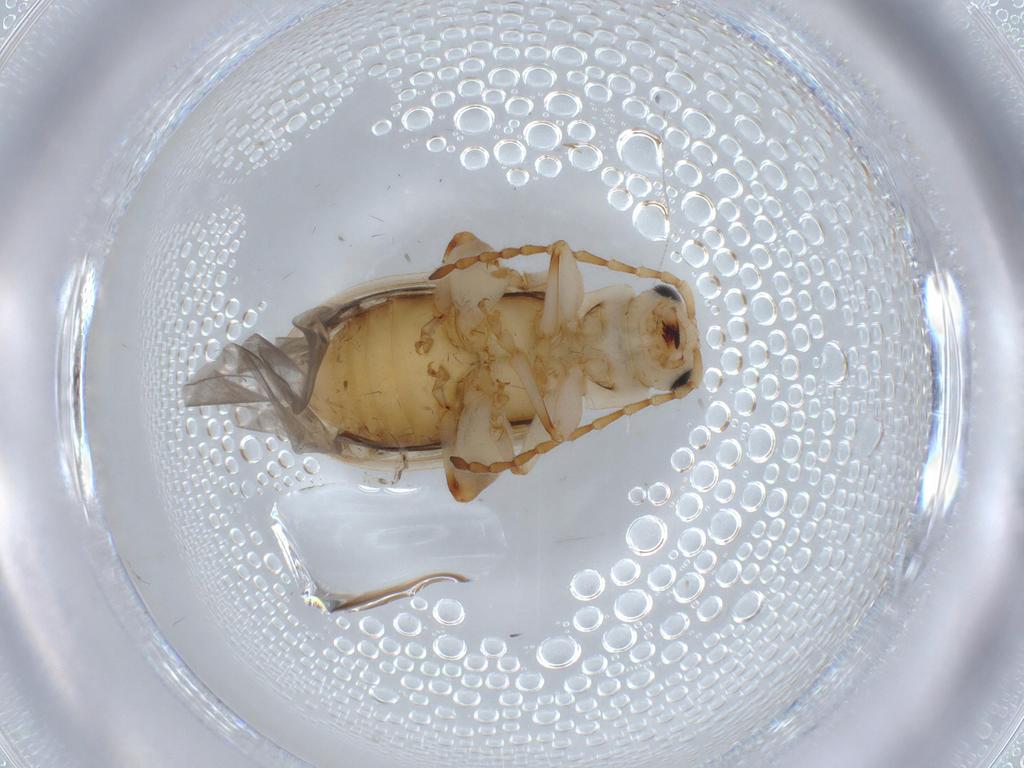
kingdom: Animalia
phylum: Arthropoda
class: Insecta
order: Coleoptera
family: Chrysomelidae
